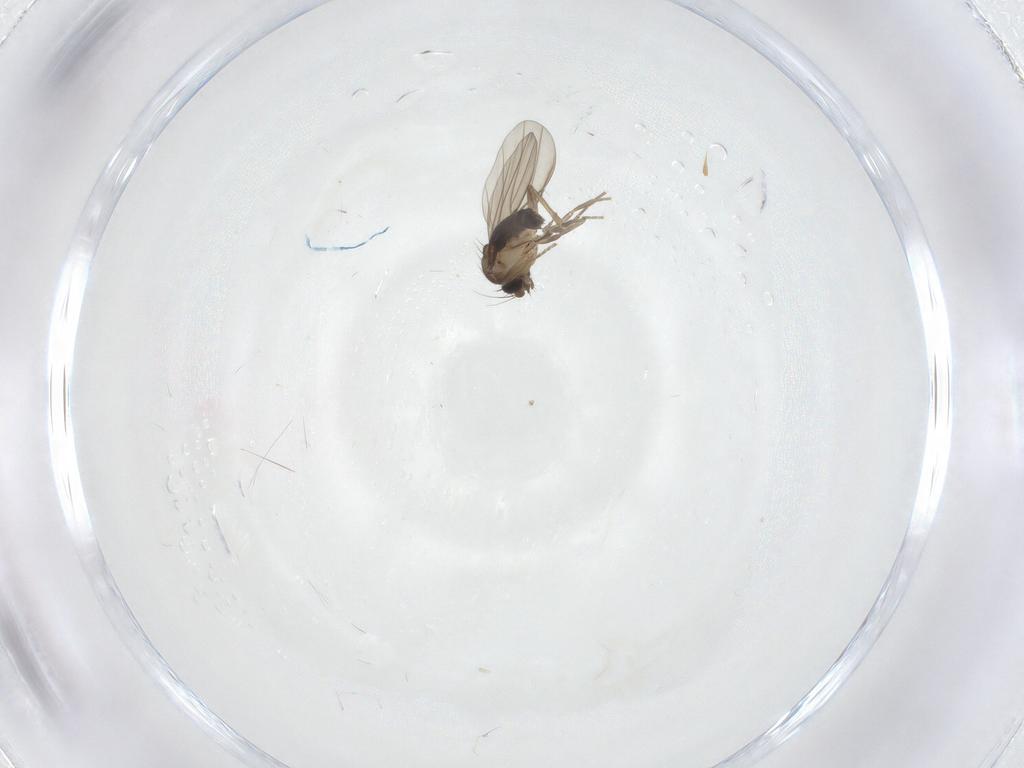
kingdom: Animalia
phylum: Arthropoda
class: Insecta
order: Diptera
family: Phoridae
